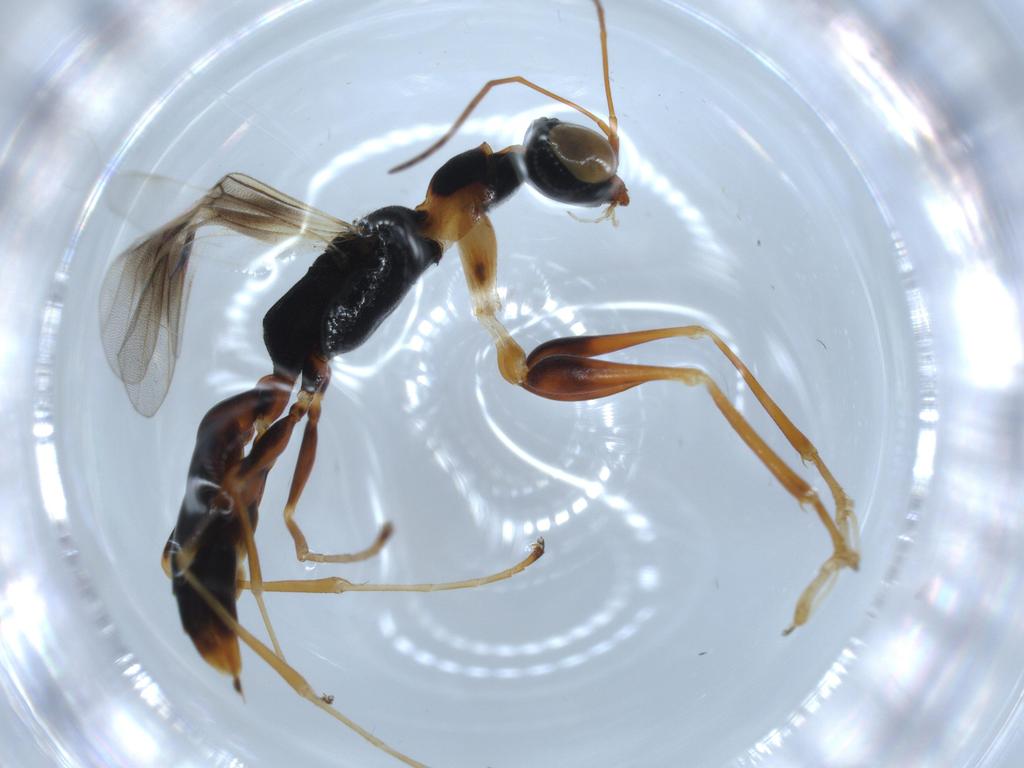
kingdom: Animalia
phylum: Arthropoda
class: Insecta
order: Hymenoptera
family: Dryinidae
